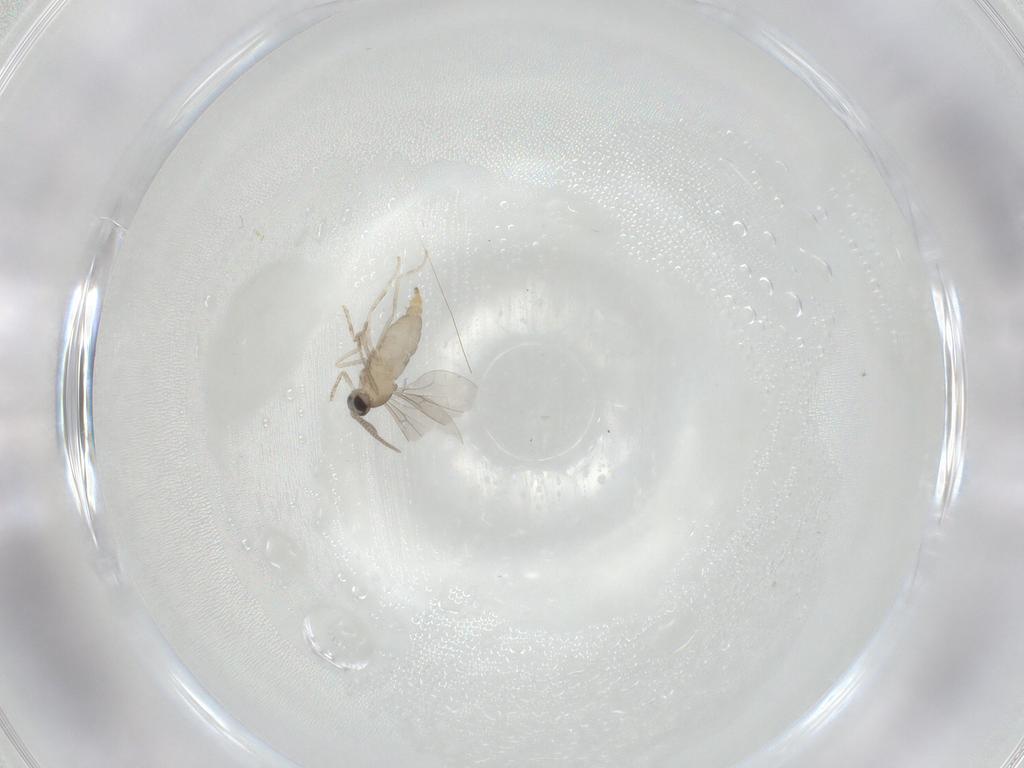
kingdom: Animalia
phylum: Arthropoda
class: Insecta
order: Diptera
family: Cecidomyiidae
